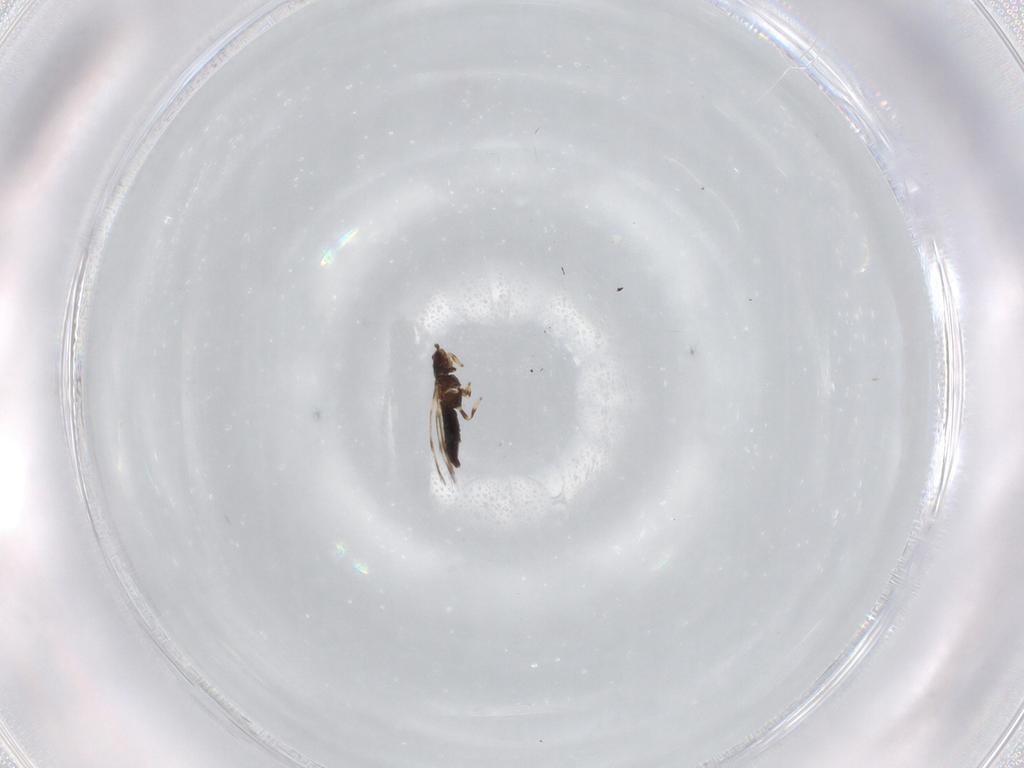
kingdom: Animalia
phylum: Arthropoda
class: Insecta
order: Thysanoptera
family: Thripidae
